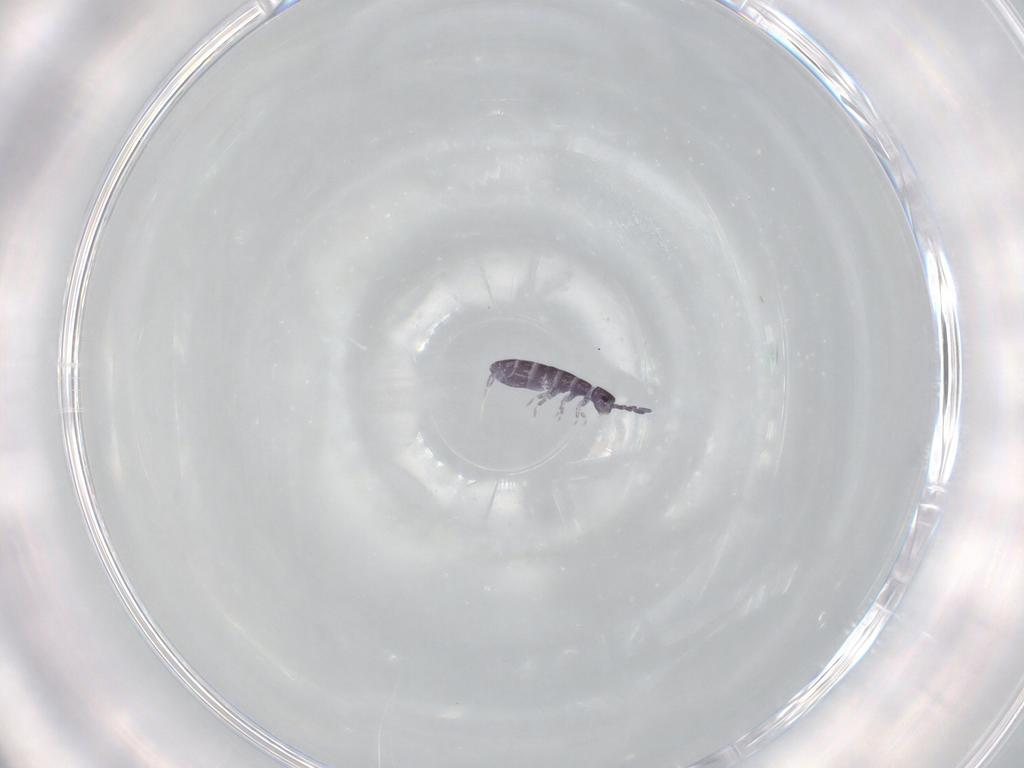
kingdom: Animalia
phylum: Arthropoda
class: Collembola
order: Entomobryomorpha
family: Isotomidae
